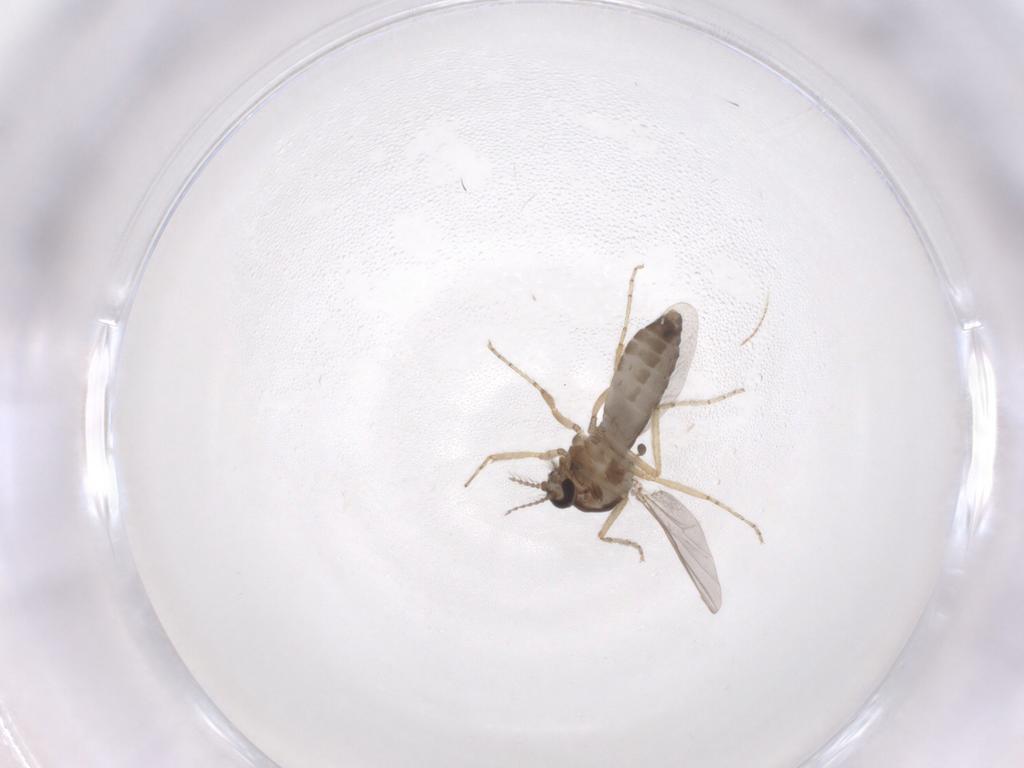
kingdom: Animalia
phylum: Arthropoda
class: Insecta
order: Diptera
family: Ceratopogonidae
